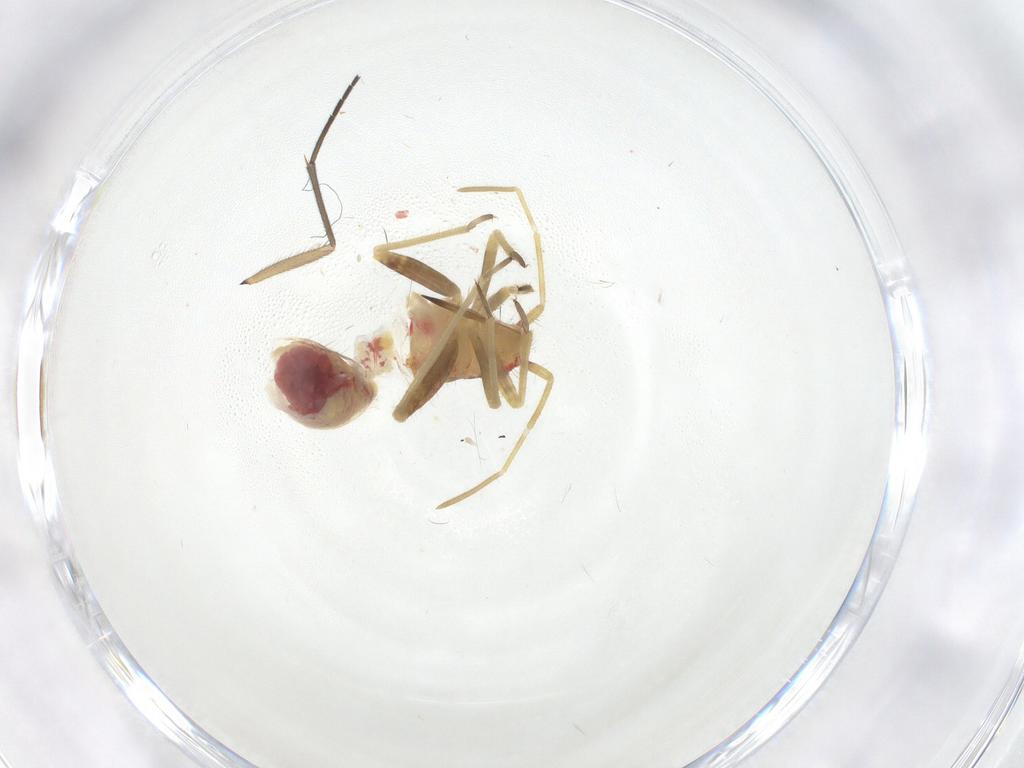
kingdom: Animalia
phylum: Arthropoda
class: Insecta
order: Hemiptera
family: Miridae
